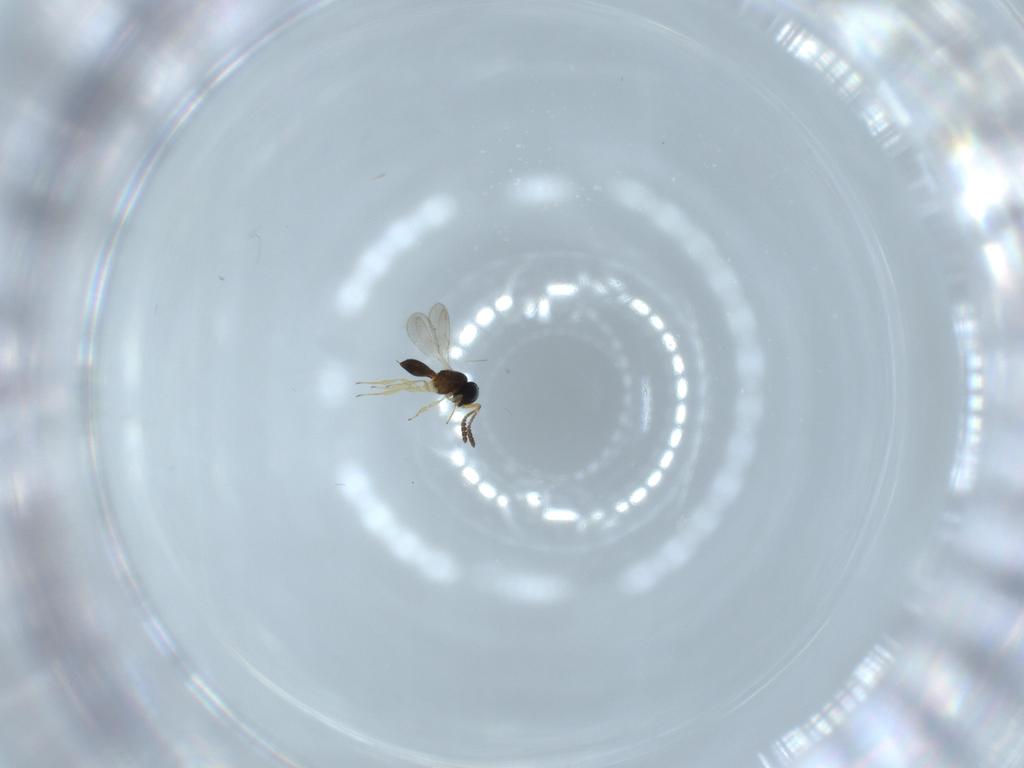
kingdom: Animalia
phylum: Arthropoda
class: Insecta
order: Hymenoptera
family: Scelionidae
